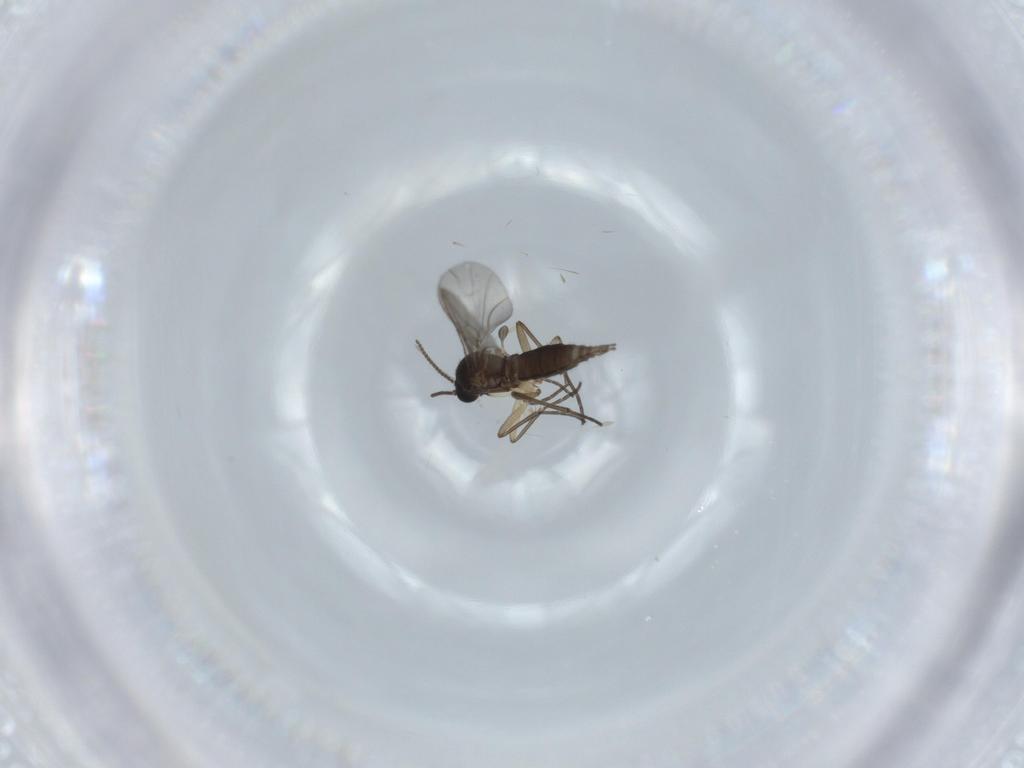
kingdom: Animalia
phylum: Arthropoda
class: Insecta
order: Diptera
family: Sciaridae
